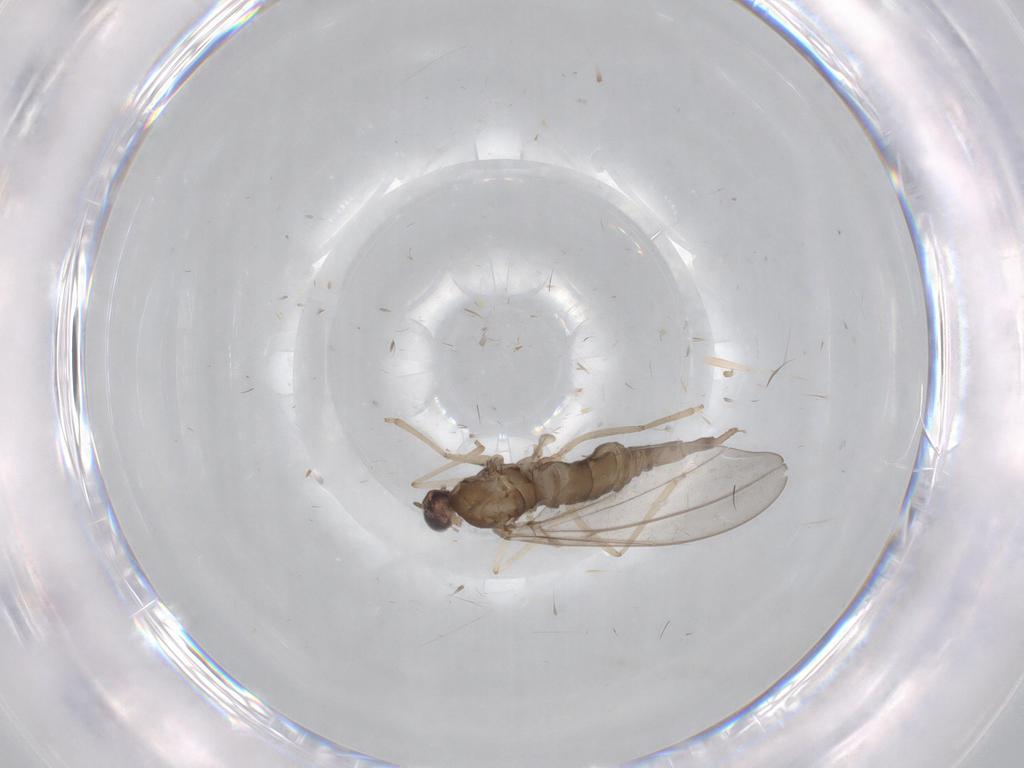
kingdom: Animalia
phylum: Arthropoda
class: Insecta
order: Diptera
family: Cecidomyiidae
